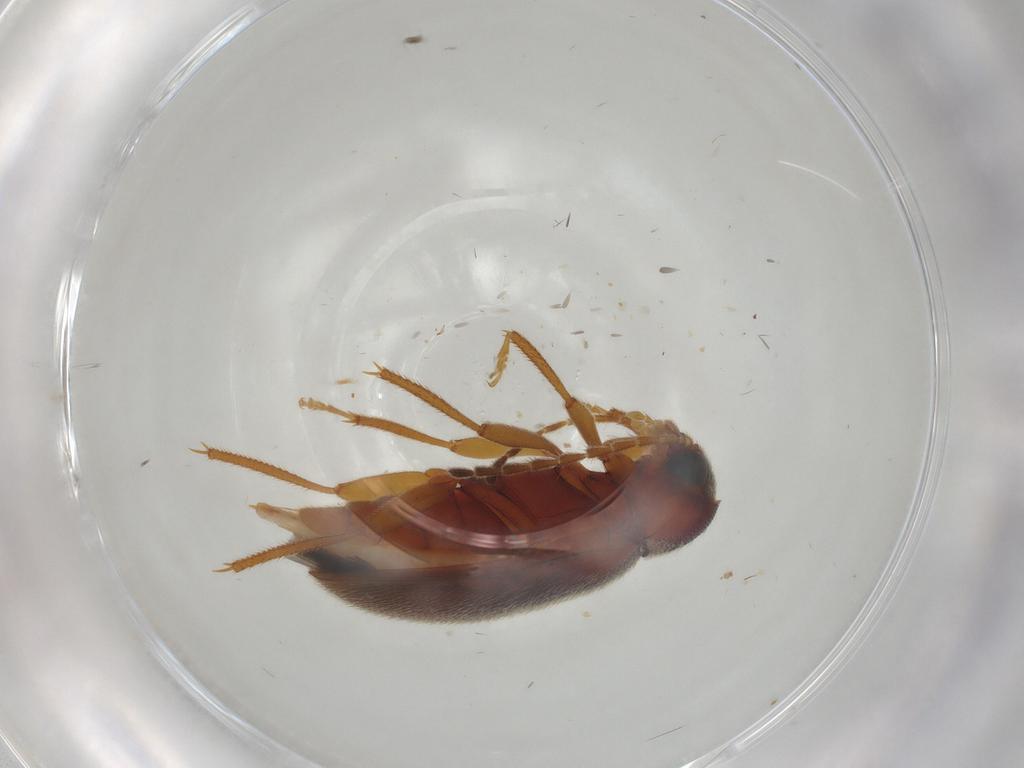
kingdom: Animalia
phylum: Arthropoda
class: Insecta
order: Coleoptera
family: Ptilodactylidae
